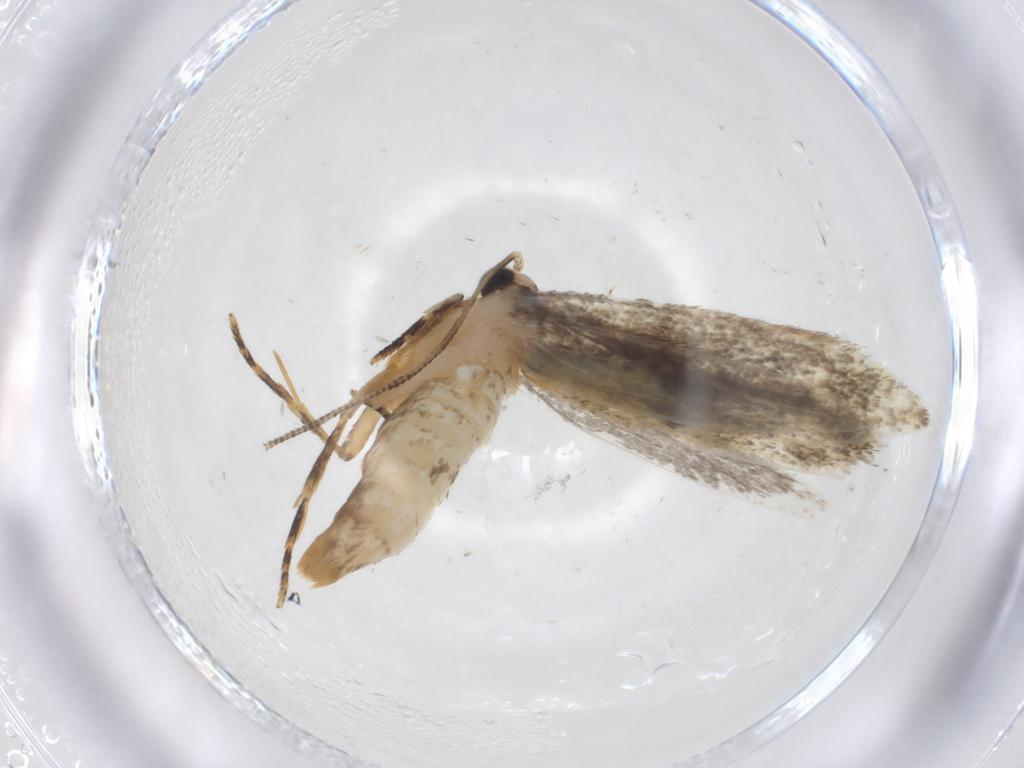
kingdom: Animalia
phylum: Arthropoda
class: Insecta
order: Lepidoptera
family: Tineidae
